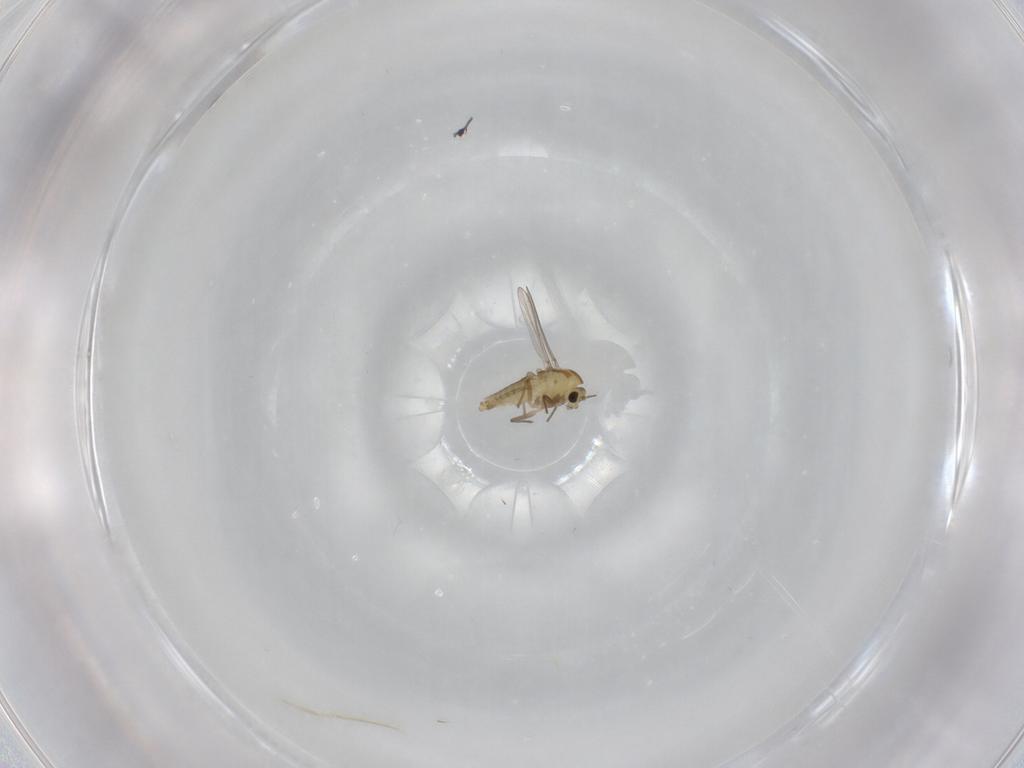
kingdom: Animalia
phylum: Arthropoda
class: Insecta
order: Diptera
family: Chironomidae
